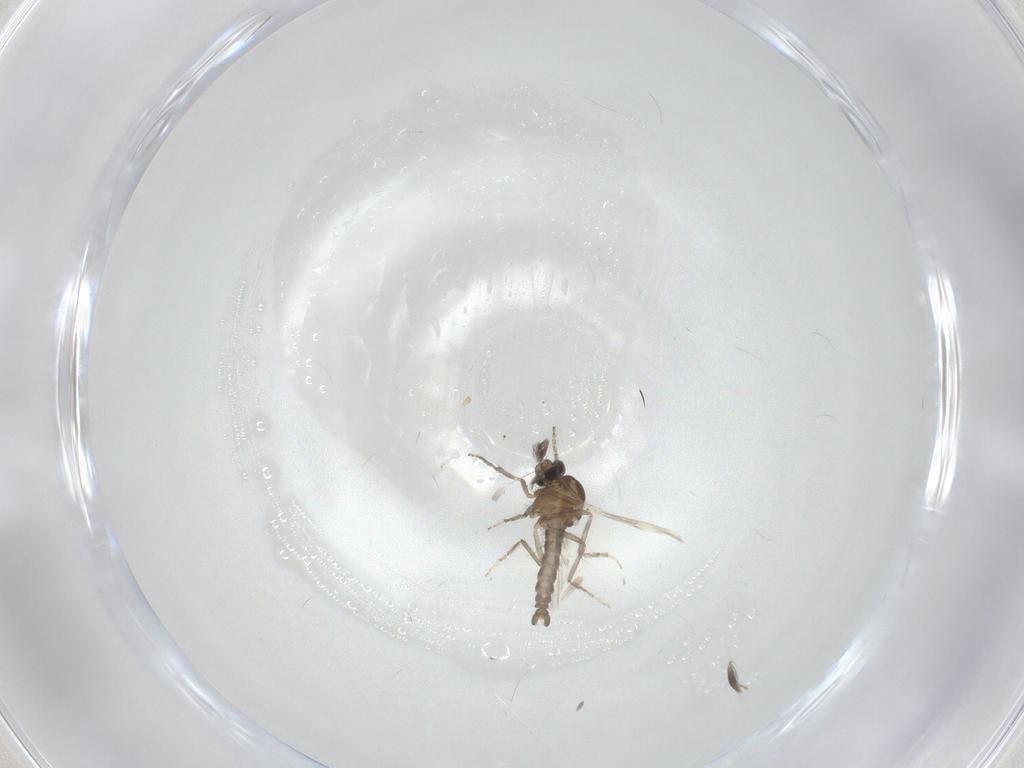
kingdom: Animalia
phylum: Arthropoda
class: Insecta
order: Diptera
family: Ceratopogonidae
